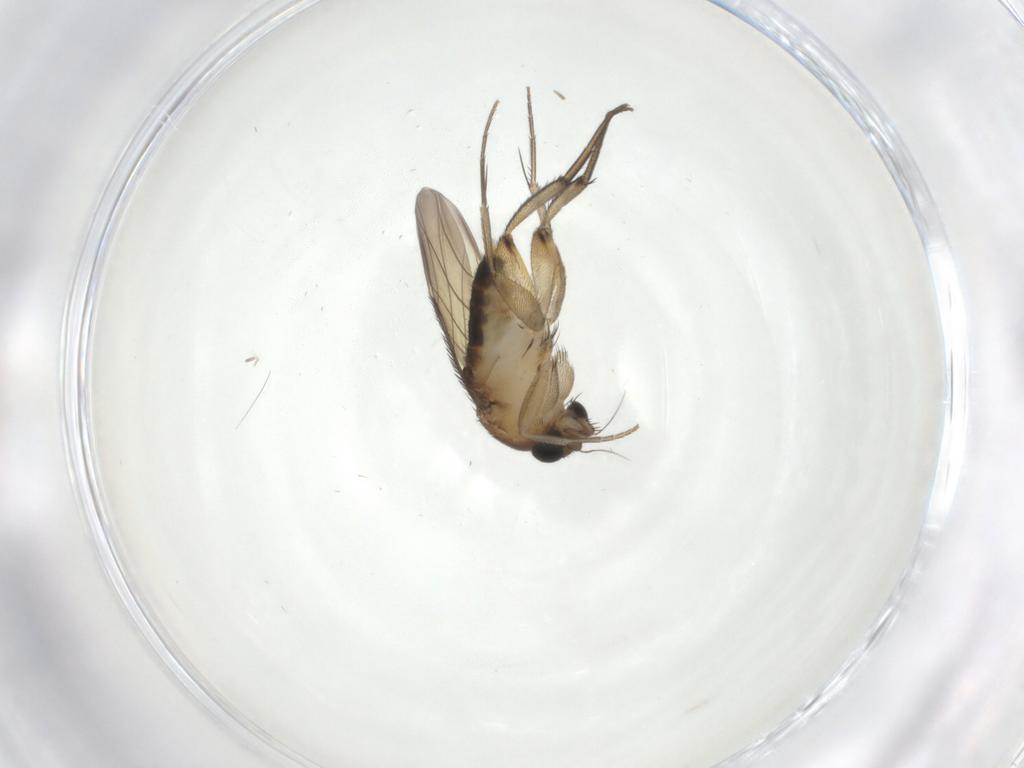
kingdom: Animalia
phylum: Arthropoda
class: Insecta
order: Diptera
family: Phoridae
